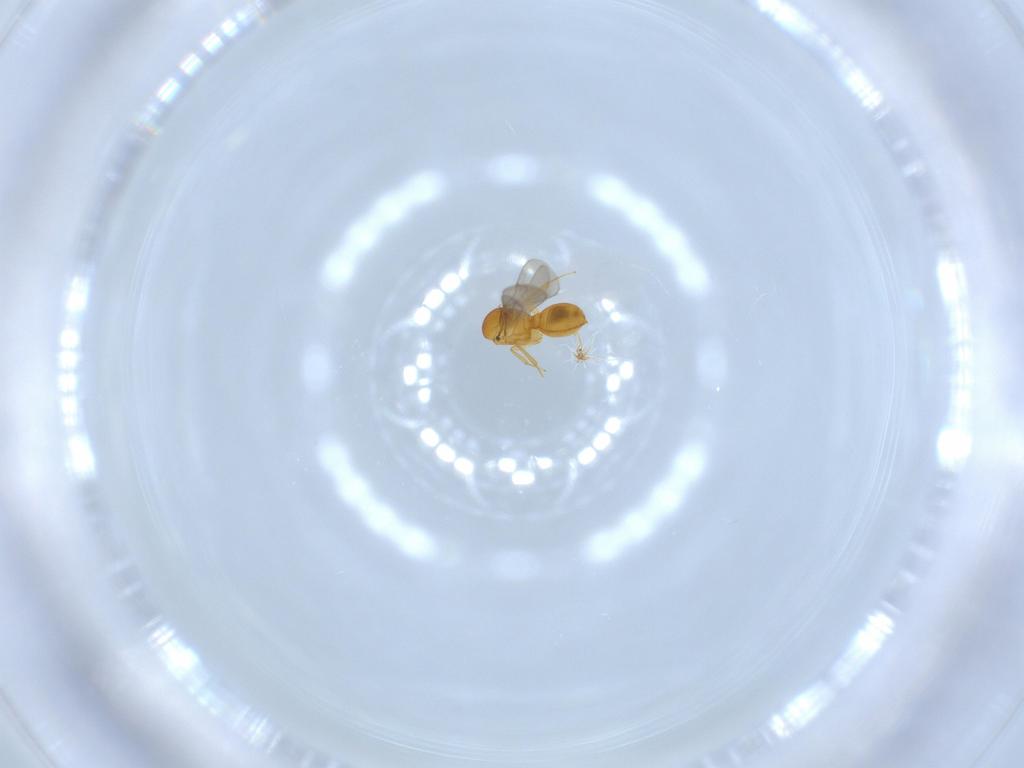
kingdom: Animalia
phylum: Arthropoda
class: Insecta
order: Hymenoptera
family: Scelionidae
